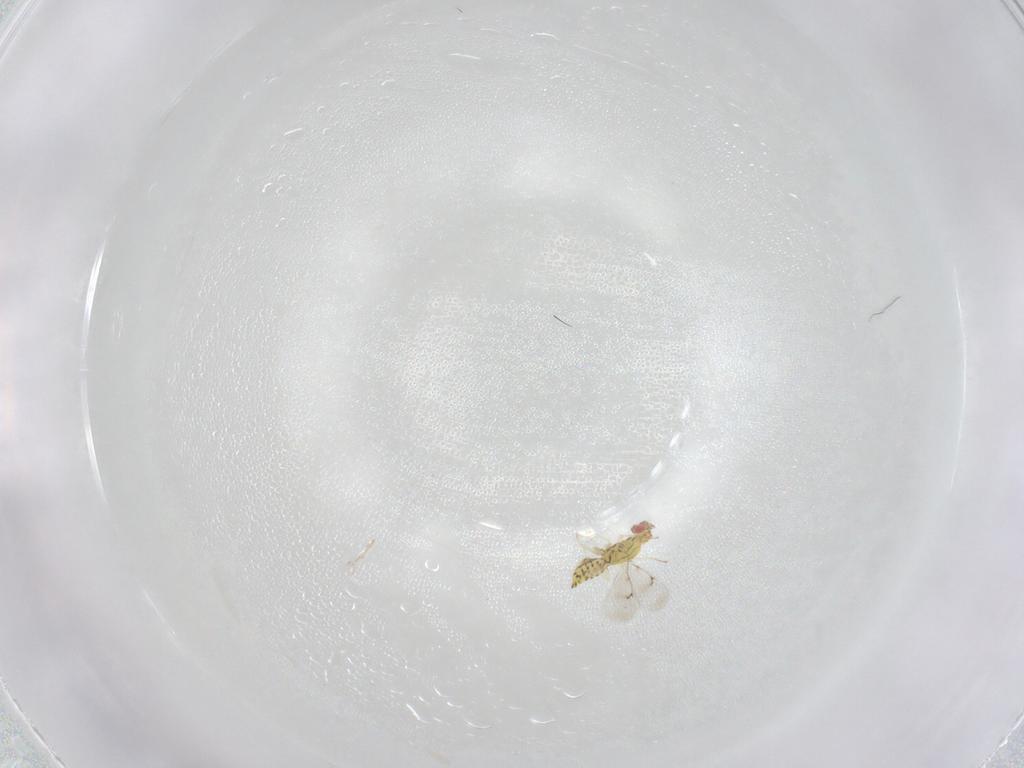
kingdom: Animalia
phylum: Arthropoda
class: Insecta
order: Hymenoptera
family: Eulophidae
